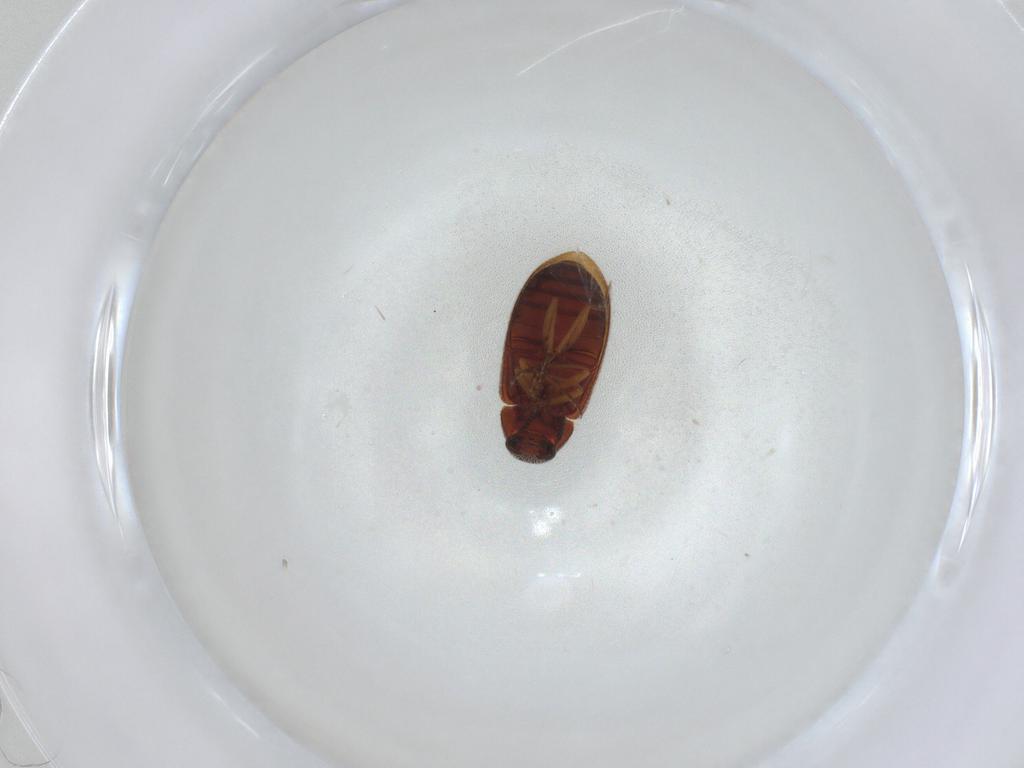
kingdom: Animalia
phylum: Arthropoda
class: Insecta
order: Coleoptera
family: Rhadalidae
